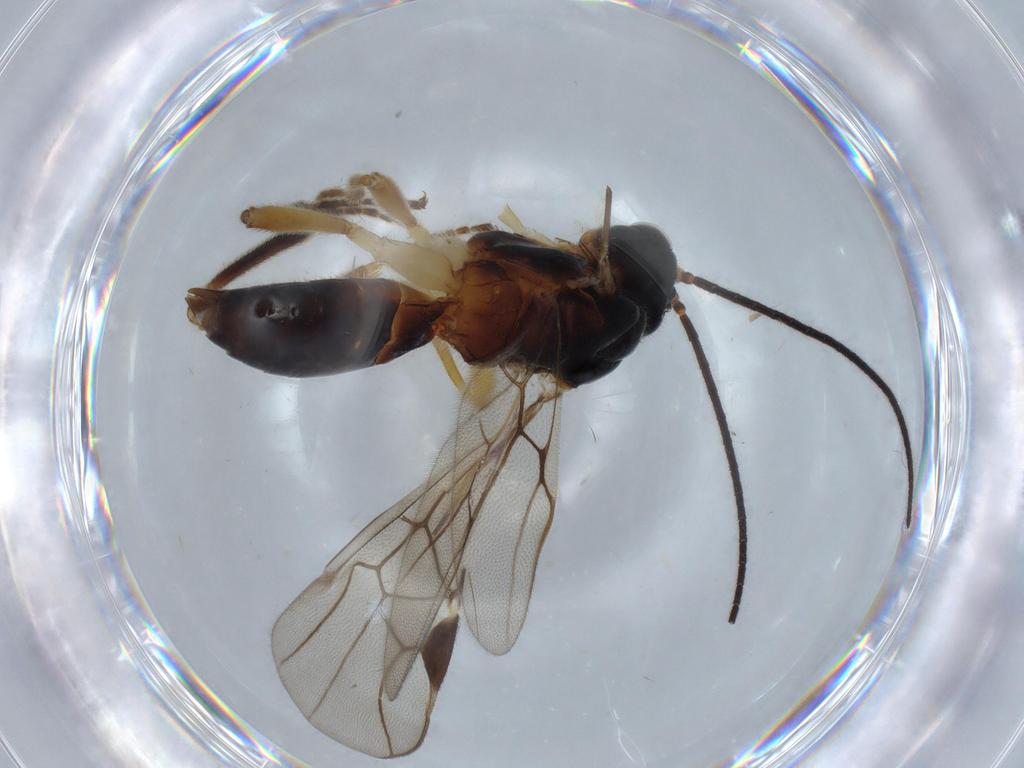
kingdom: Animalia
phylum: Arthropoda
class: Insecta
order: Hymenoptera
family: Braconidae
